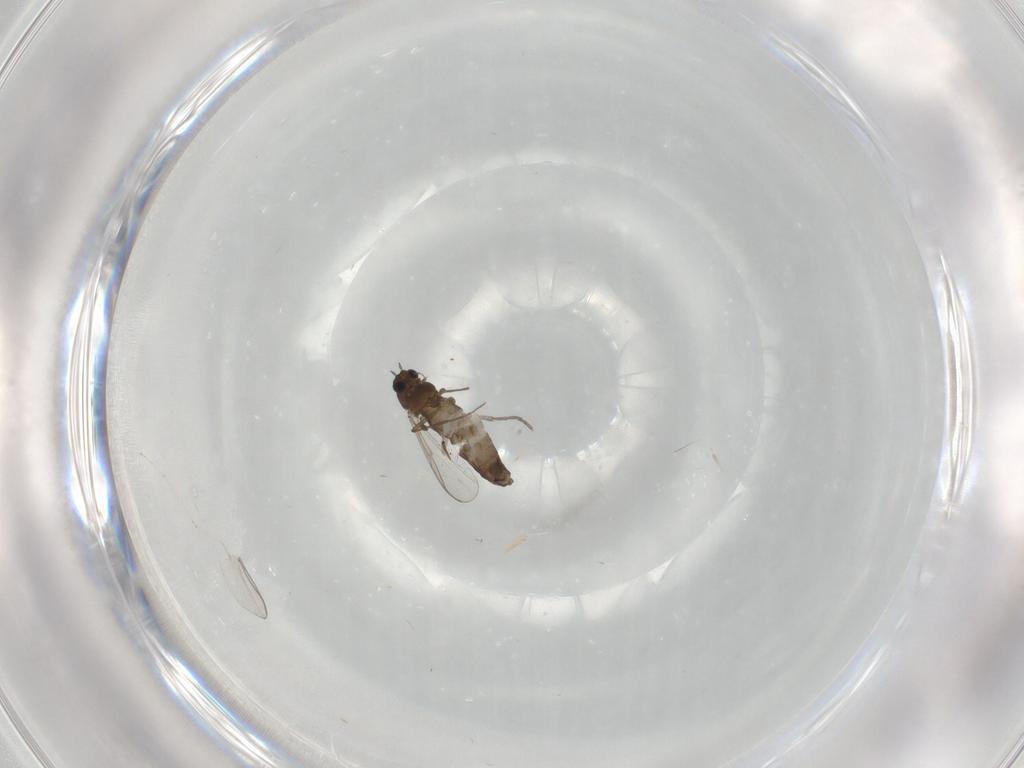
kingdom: Animalia
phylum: Arthropoda
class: Insecta
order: Diptera
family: Chironomidae
